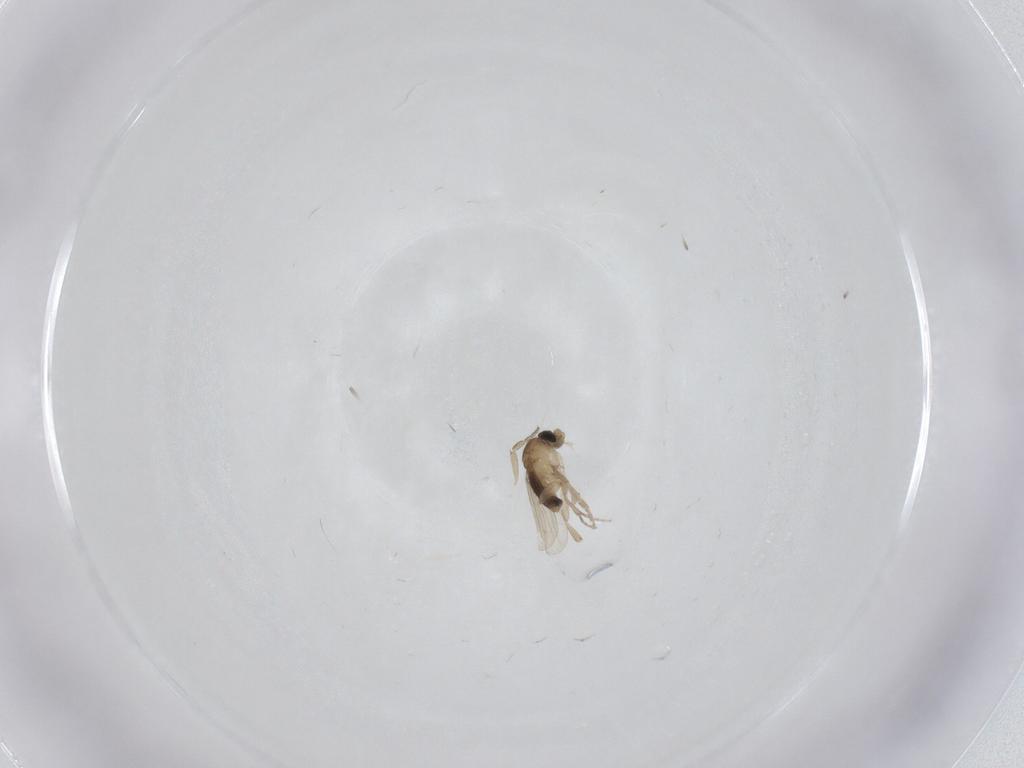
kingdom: Animalia
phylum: Arthropoda
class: Insecta
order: Diptera
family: Phoridae
